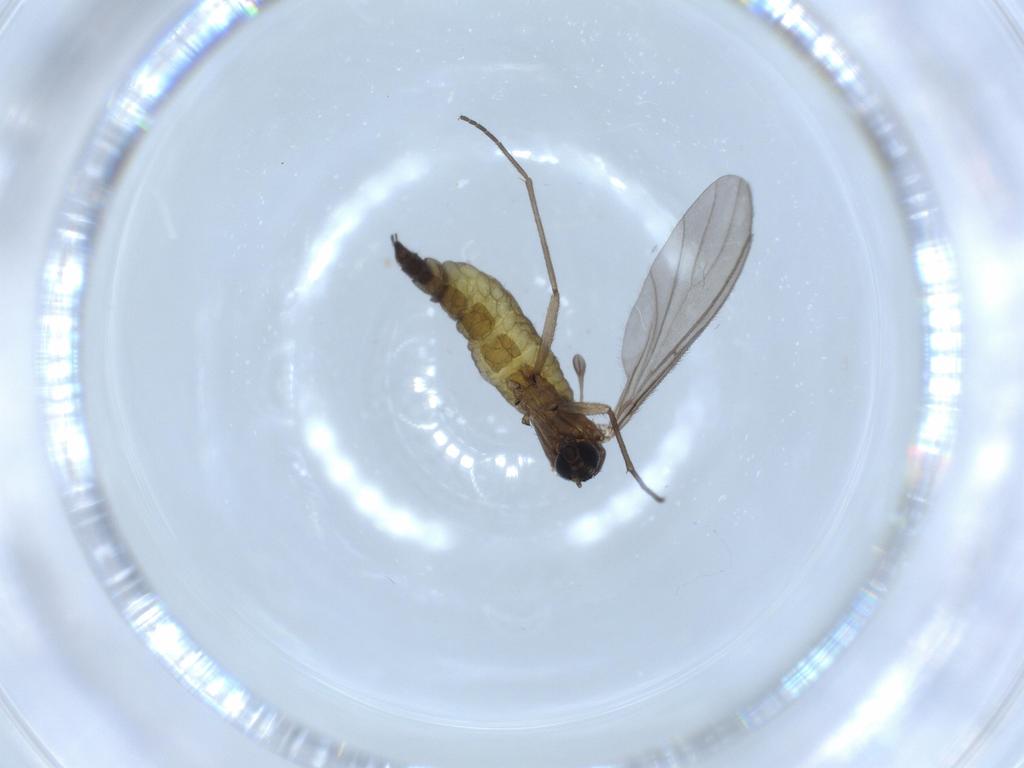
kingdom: Animalia
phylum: Arthropoda
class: Insecta
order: Diptera
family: Sciaridae
